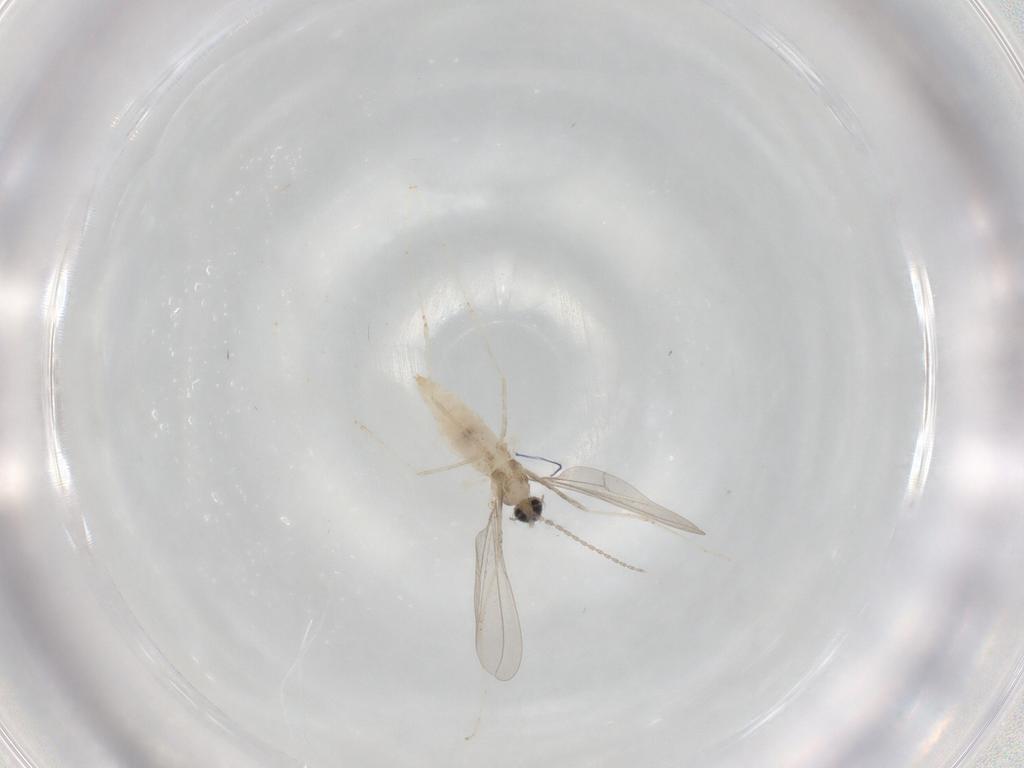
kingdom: Animalia
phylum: Arthropoda
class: Insecta
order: Diptera
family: Cecidomyiidae
